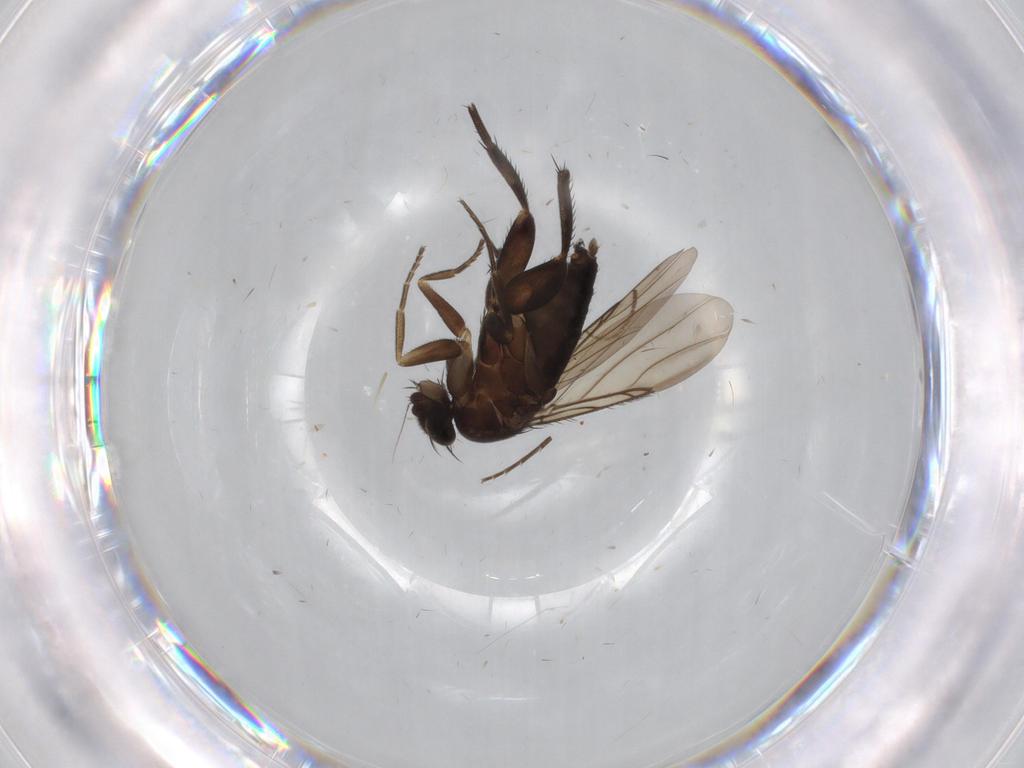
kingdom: Animalia
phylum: Arthropoda
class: Insecta
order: Diptera
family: Sciaridae
